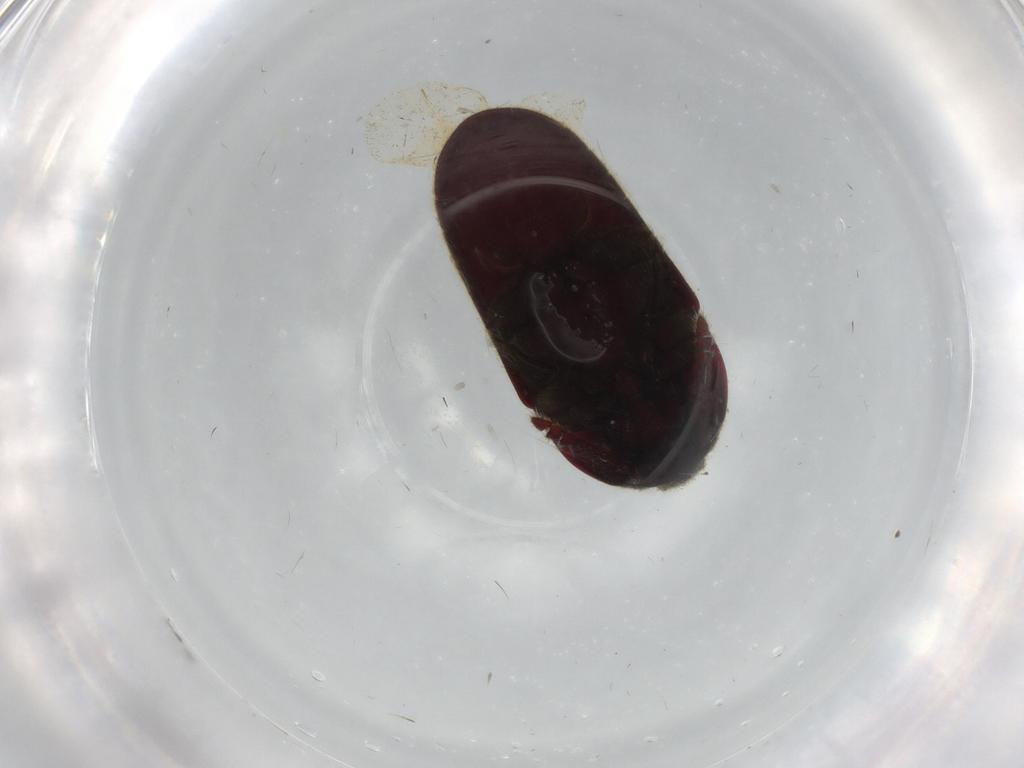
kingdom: Animalia
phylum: Arthropoda
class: Insecta
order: Coleoptera
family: Throscidae
